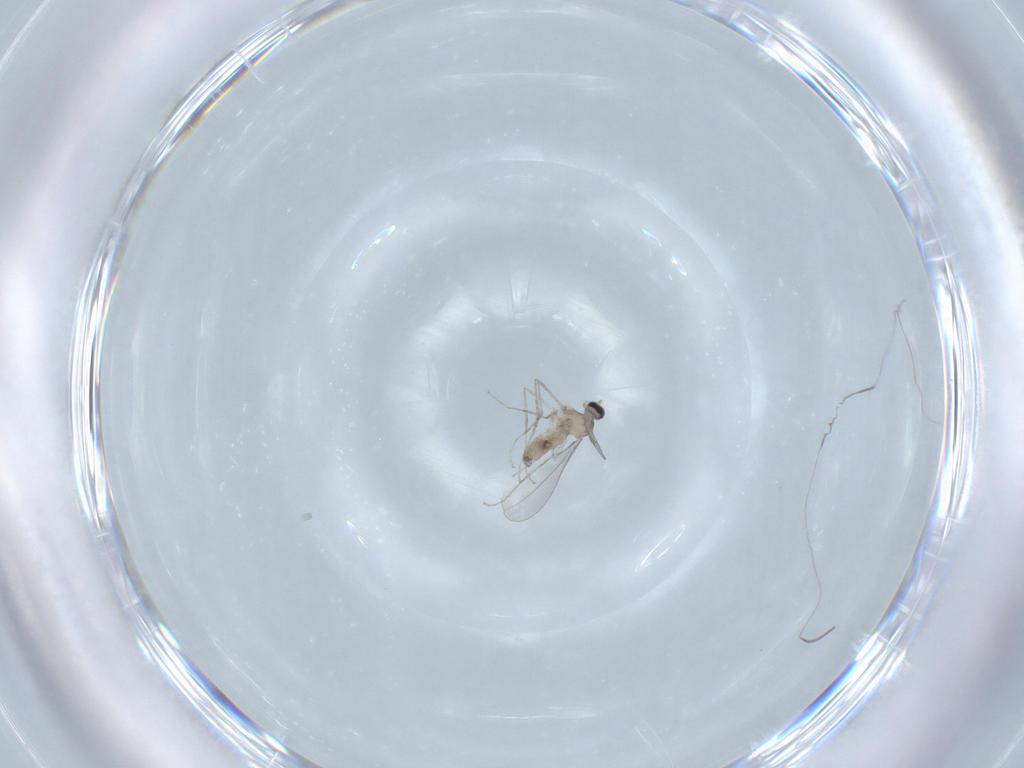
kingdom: Animalia
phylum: Arthropoda
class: Insecta
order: Diptera
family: Cecidomyiidae
